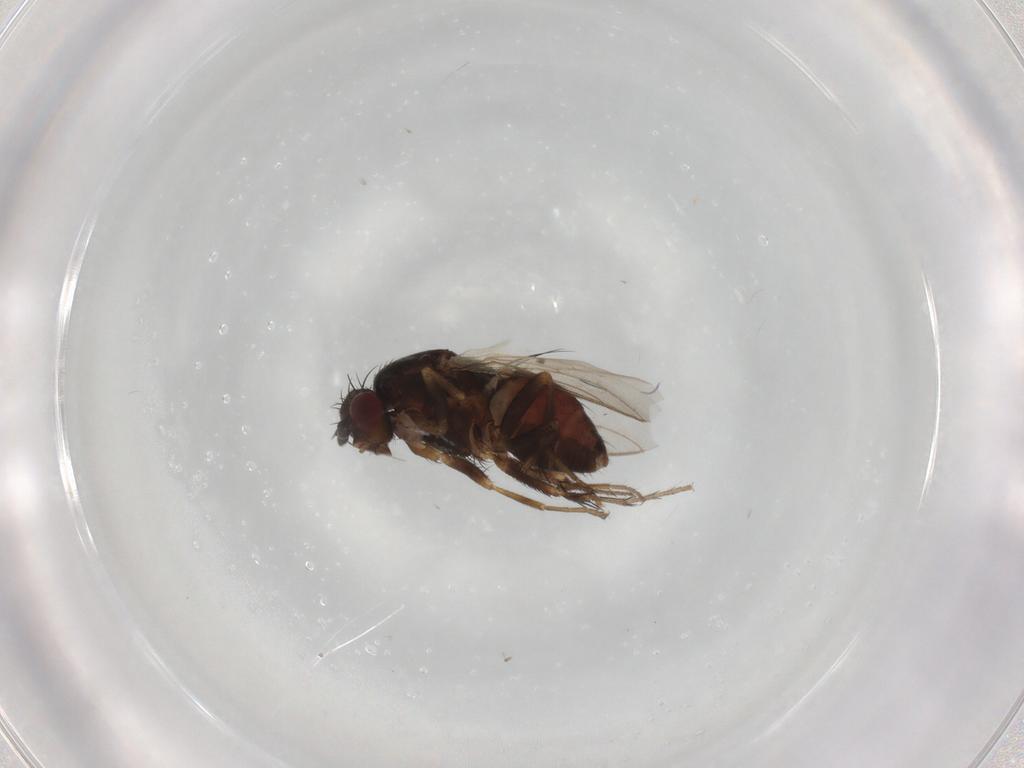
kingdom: Animalia
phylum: Arthropoda
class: Insecta
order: Diptera
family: Sphaeroceridae
